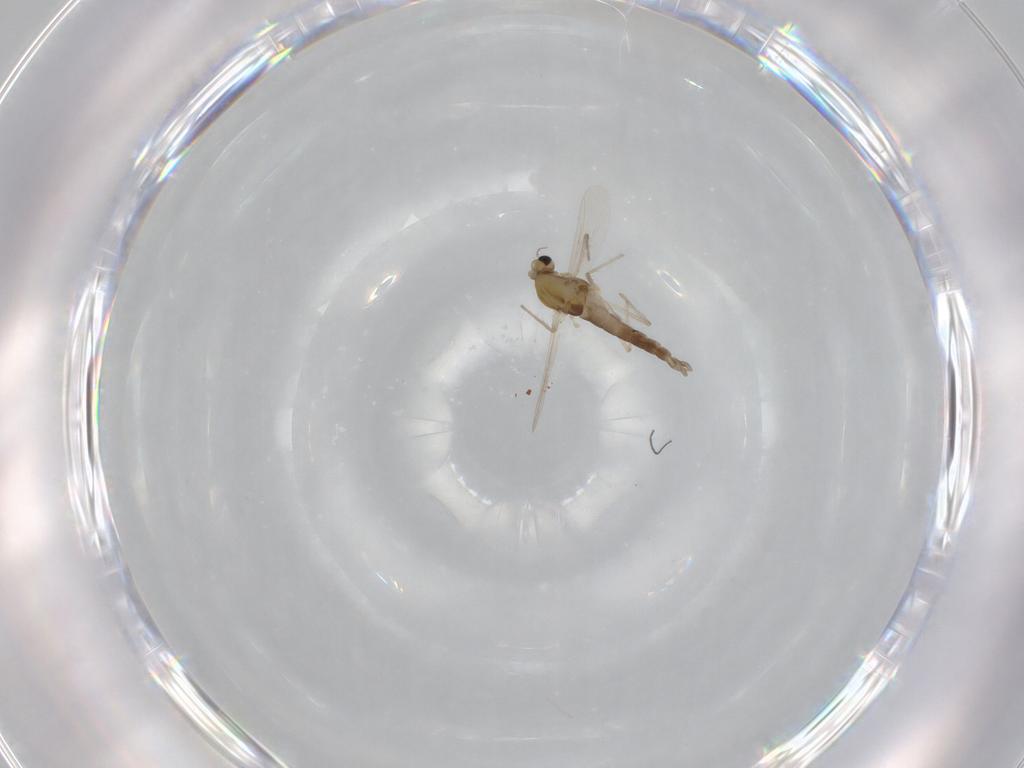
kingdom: Animalia
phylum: Arthropoda
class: Insecta
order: Diptera
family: Chironomidae
